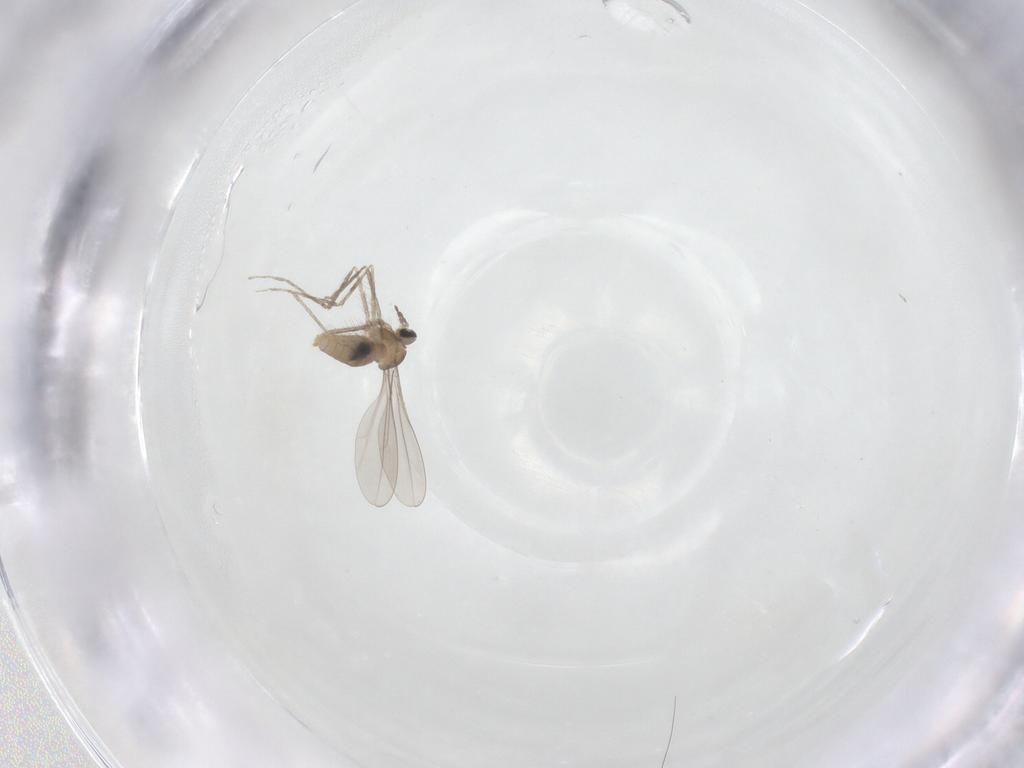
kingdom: Animalia
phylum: Arthropoda
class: Insecta
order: Diptera
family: Cecidomyiidae
